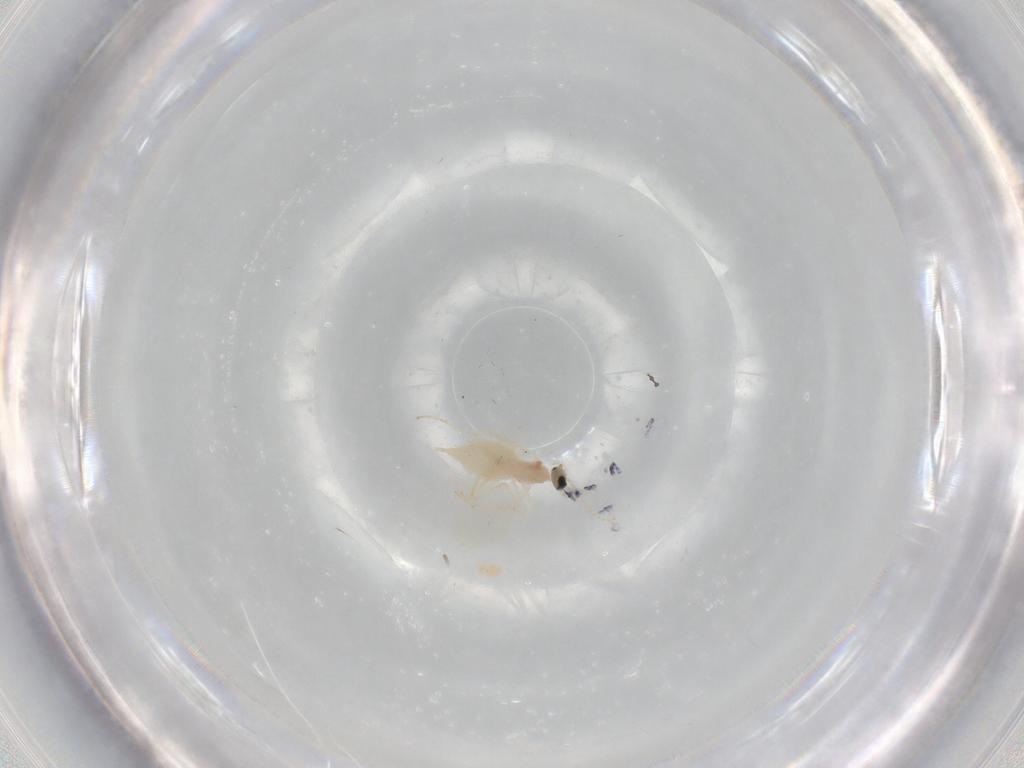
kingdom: Animalia
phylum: Arthropoda
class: Insecta
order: Diptera
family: Cecidomyiidae
